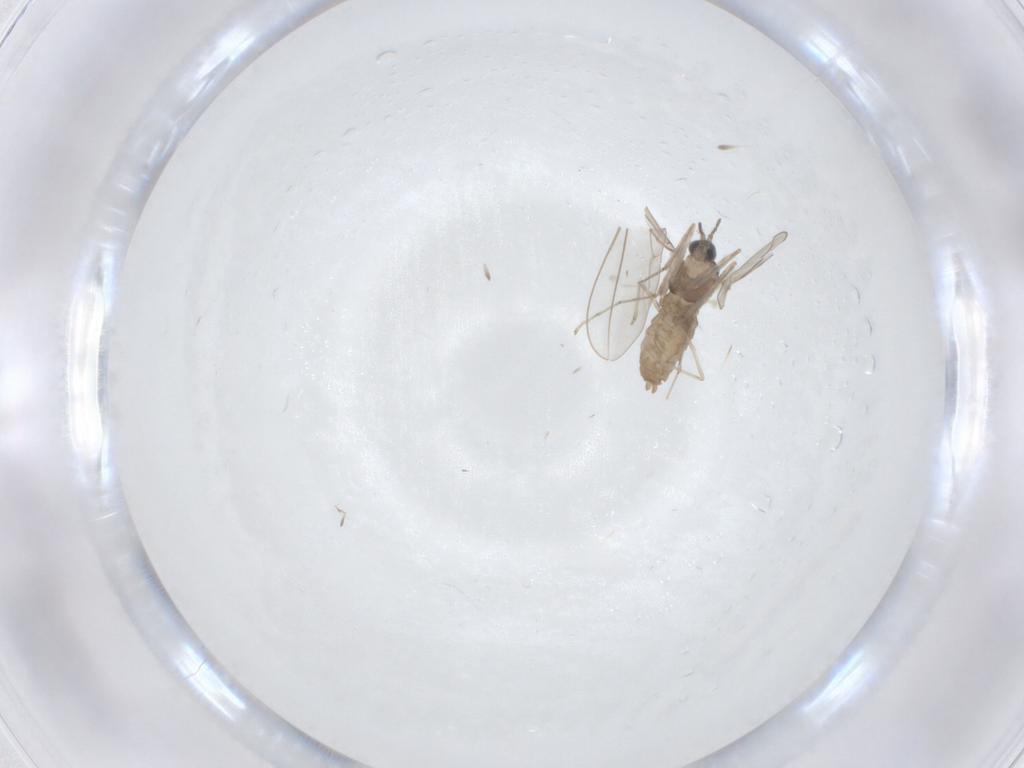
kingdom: Animalia
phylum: Arthropoda
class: Insecta
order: Diptera
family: Cecidomyiidae
